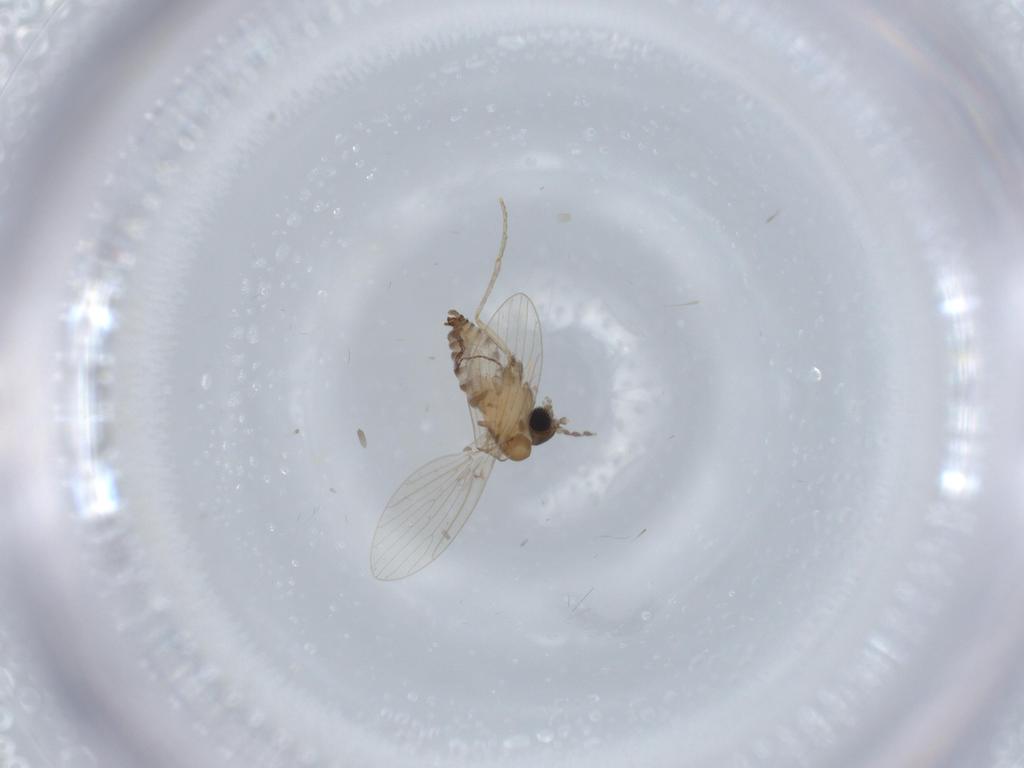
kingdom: Animalia
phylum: Arthropoda
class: Insecta
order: Diptera
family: Psychodidae
